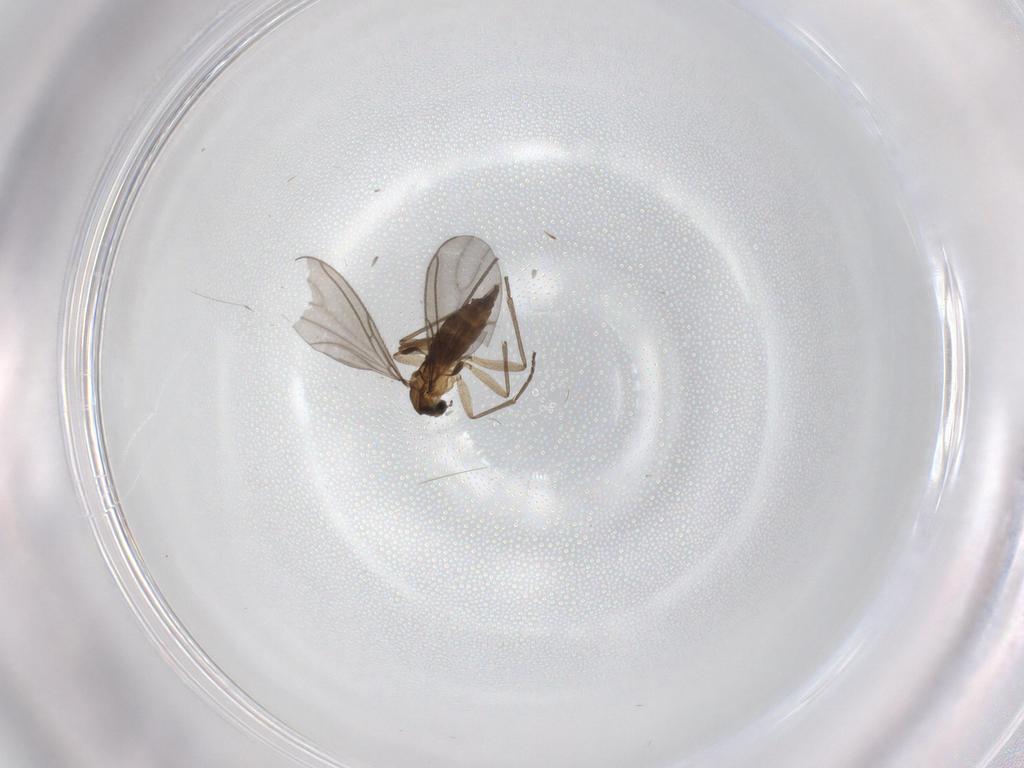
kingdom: Animalia
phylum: Arthropoda
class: Insecta
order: Diptera
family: Sciaridae
